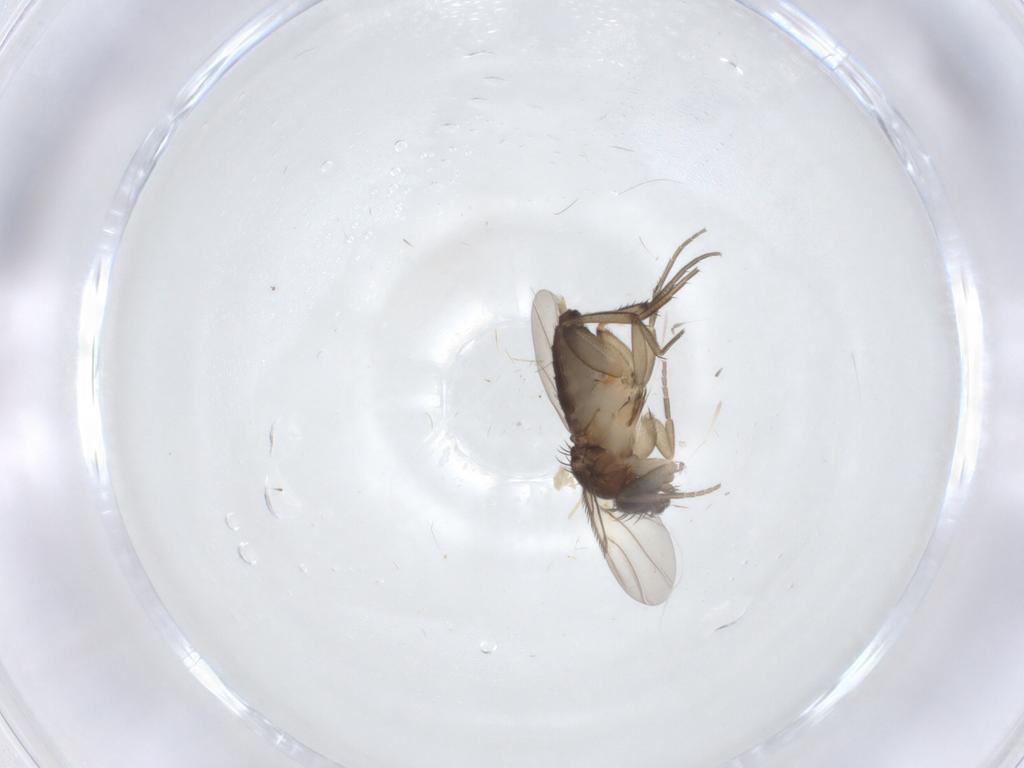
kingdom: Animalia
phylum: Arthropoda
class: Insecta
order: Diptera
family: Phoridae
